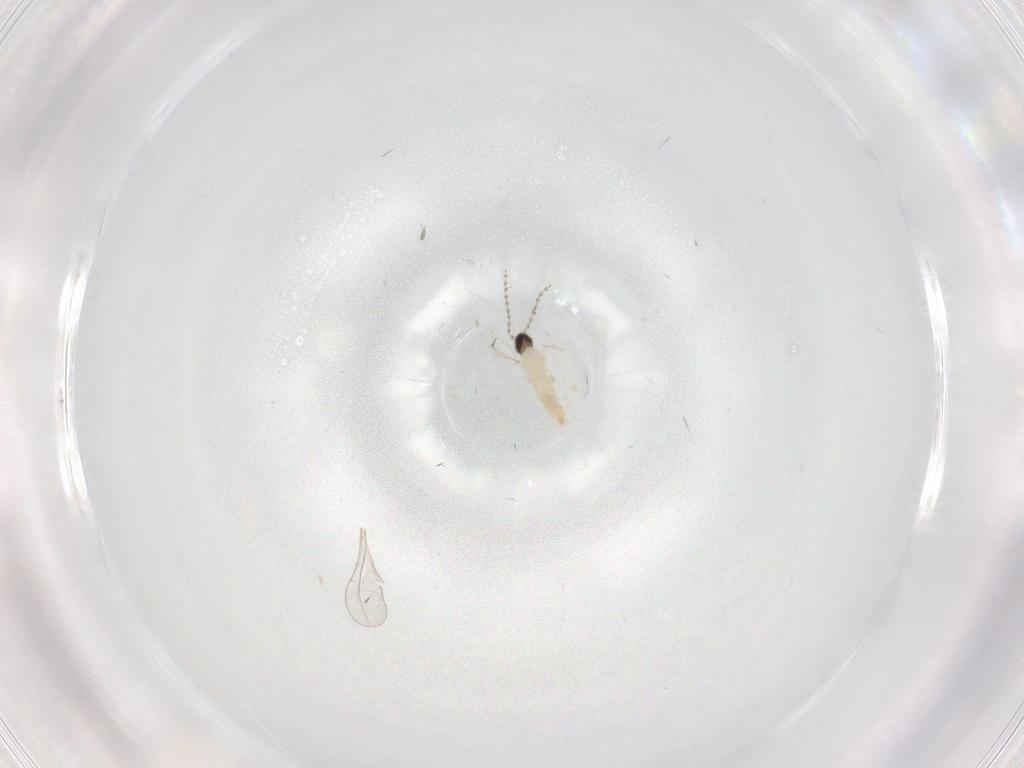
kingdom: Animalia
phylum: Arthropoda
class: Insecta
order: Diptera
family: Cecidomyiidae
